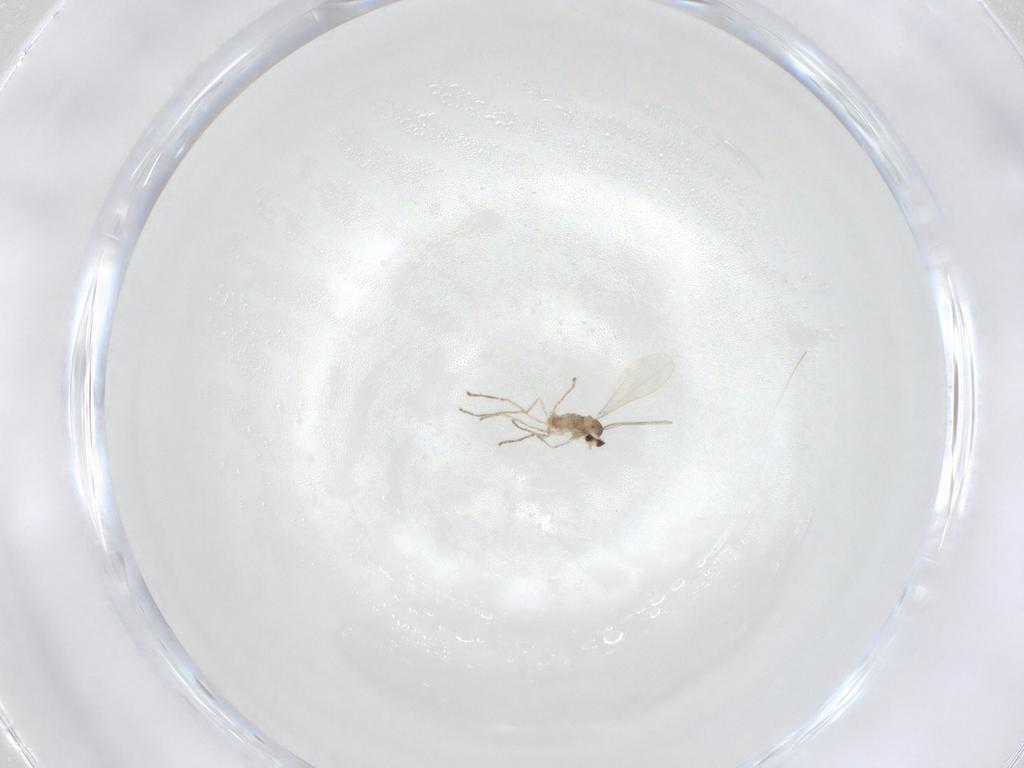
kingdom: Animalia
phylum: Arthropoda
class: Insecta
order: Diptera
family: Cecidomyiidae
